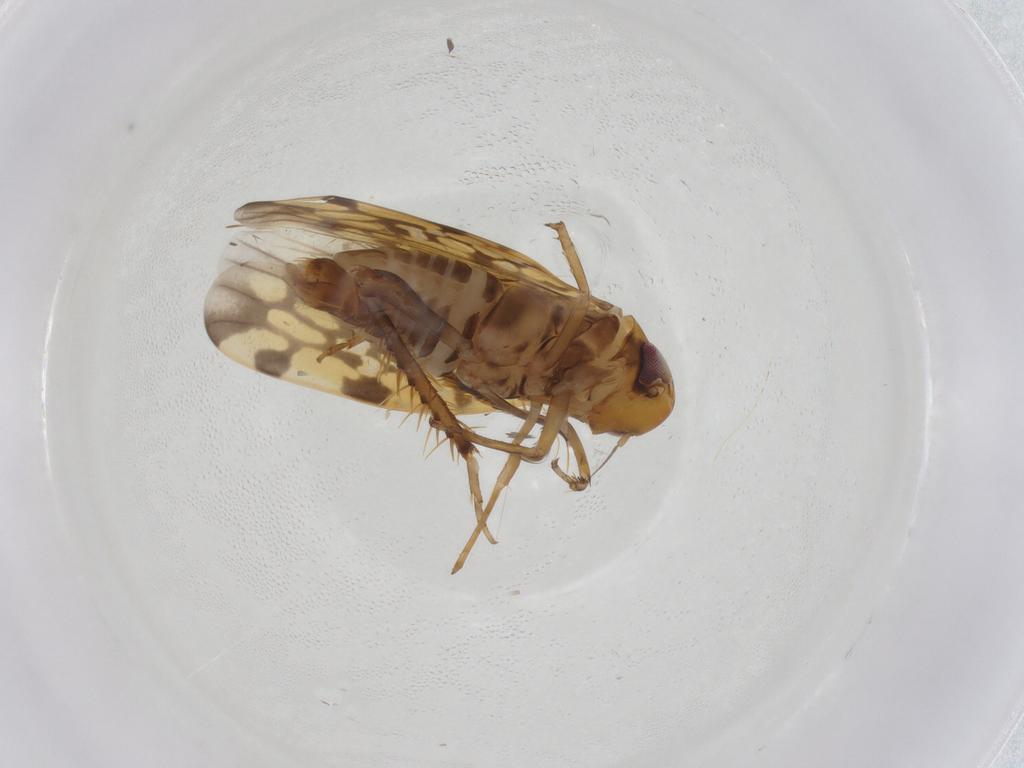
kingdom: Animalia
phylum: Arthropoda
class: Insecta
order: Hemiptera
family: Cicadellidae
